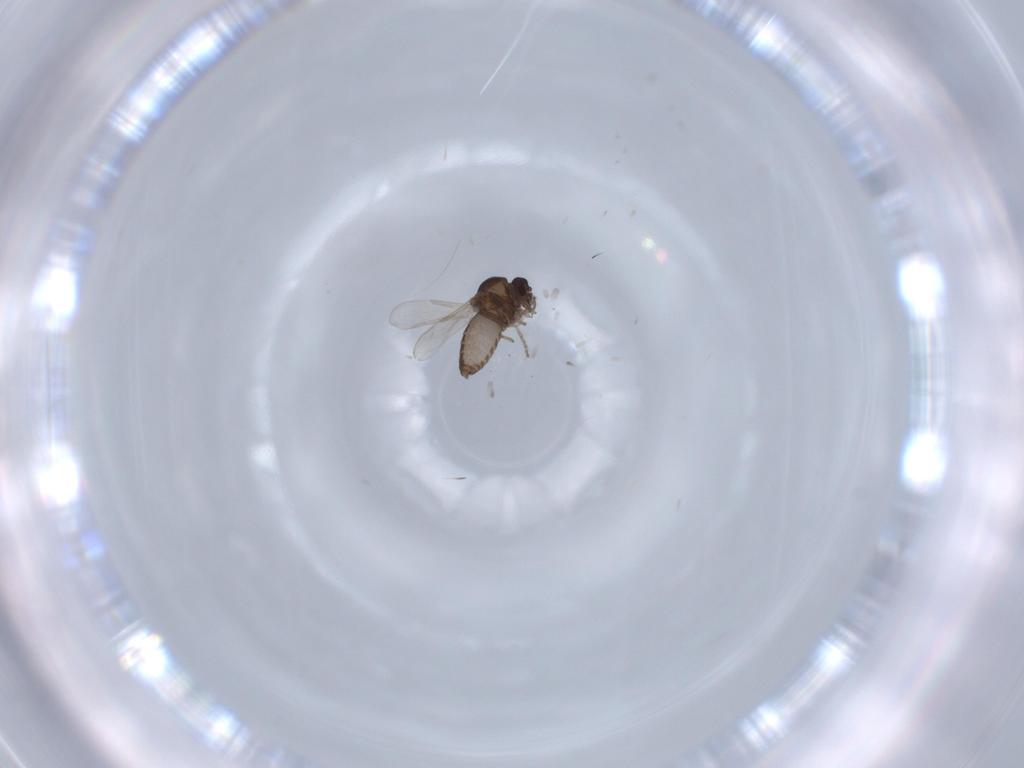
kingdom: Animalia
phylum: Arthropoda
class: Insecta
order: Diptera
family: Ceratopogonidae
